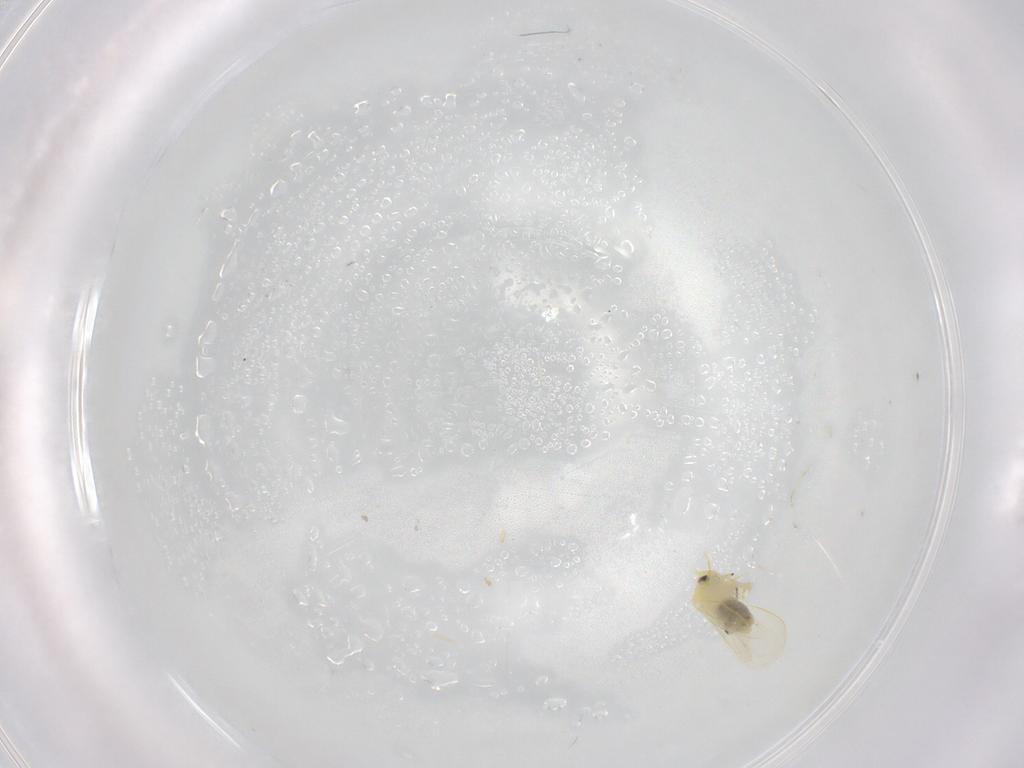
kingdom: Animalia
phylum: Arthropoda
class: Insecta
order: Hemiptera
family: Aleyrodidae
